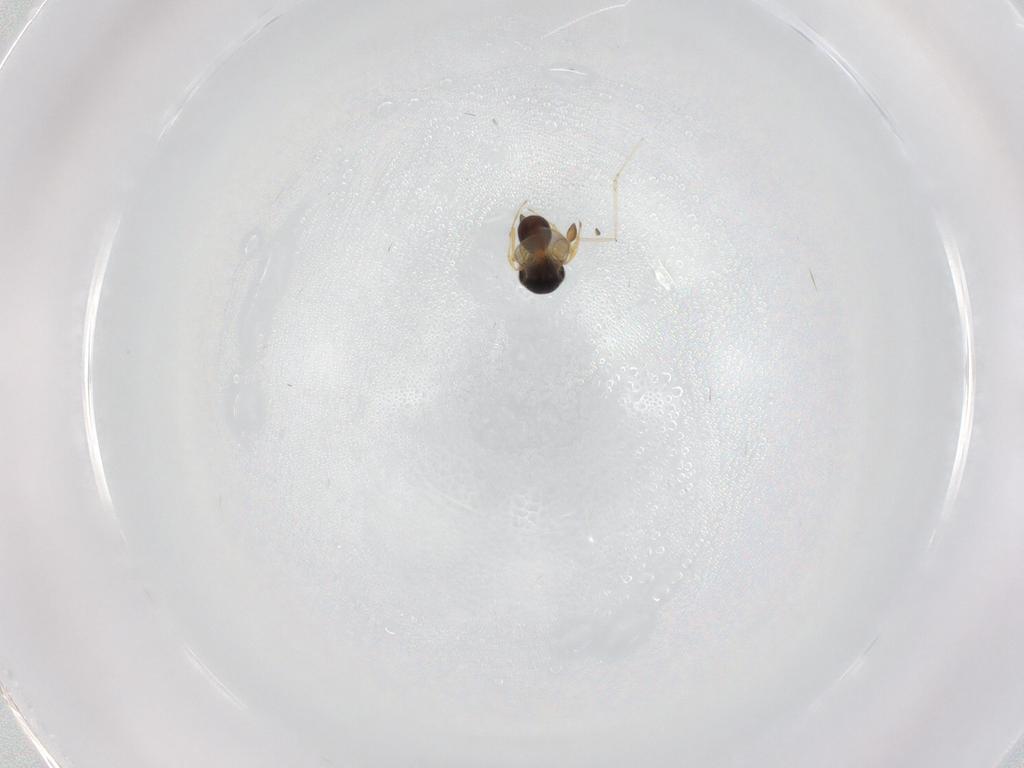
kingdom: Animalia
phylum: Arthropoda
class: Insecta
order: Hymenoptera
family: Scelionidae
